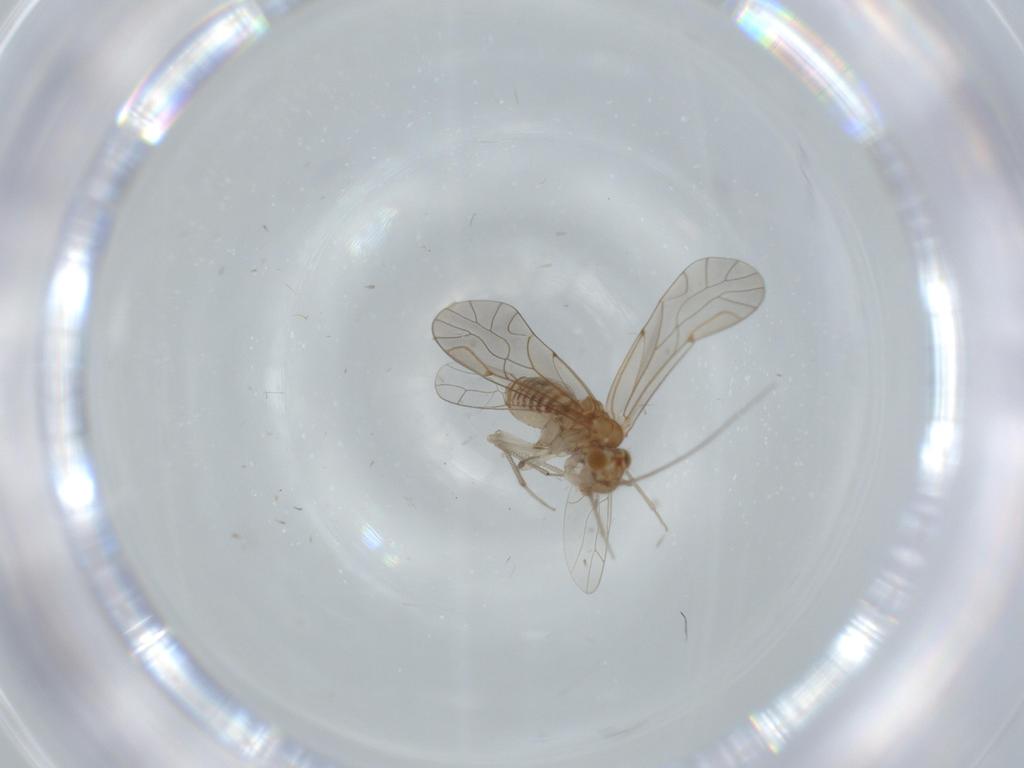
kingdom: Animalia
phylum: Arthropoda
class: Insecta
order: Psocodea
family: Lachesillidae
